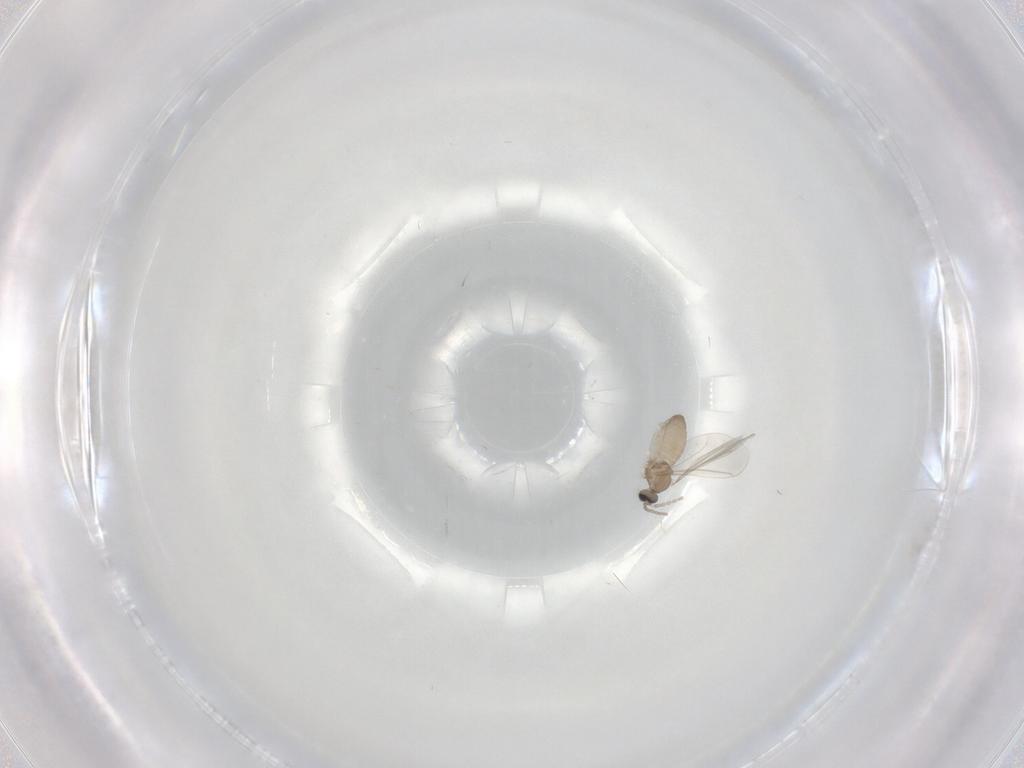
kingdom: Animalia
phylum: Arthropoda
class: Insecta
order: Diptera
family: Cecidomyiidae
